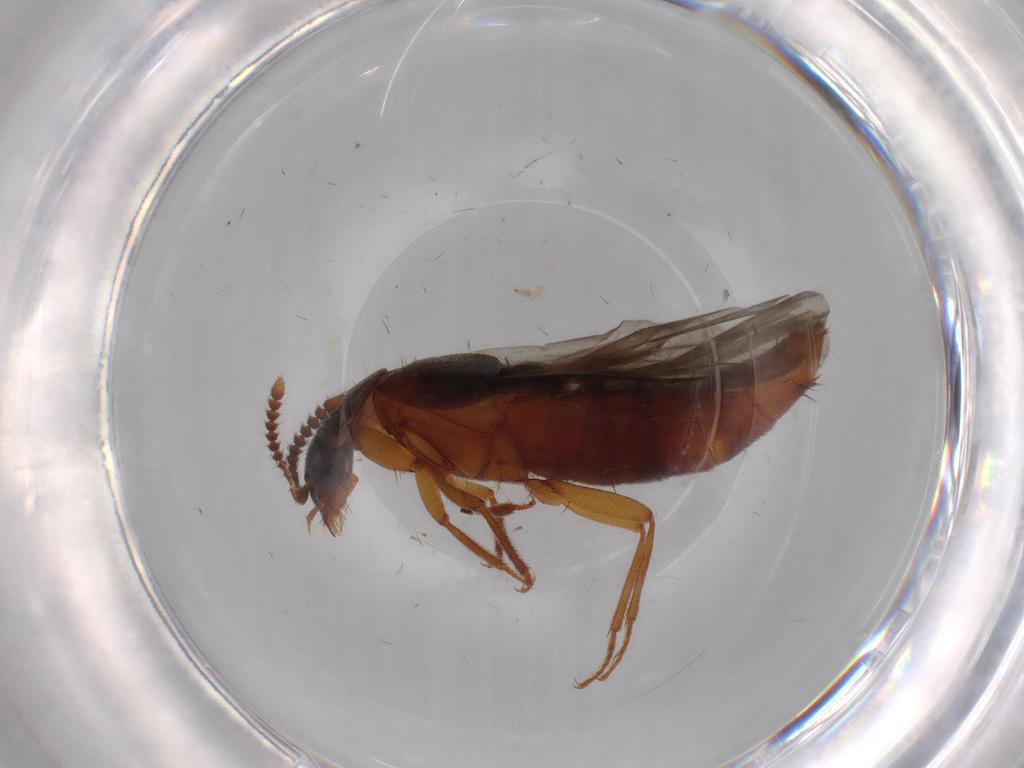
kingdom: Animalia
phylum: Arthropoda
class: Insecta
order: Coleoptera
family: Staphylinidae
